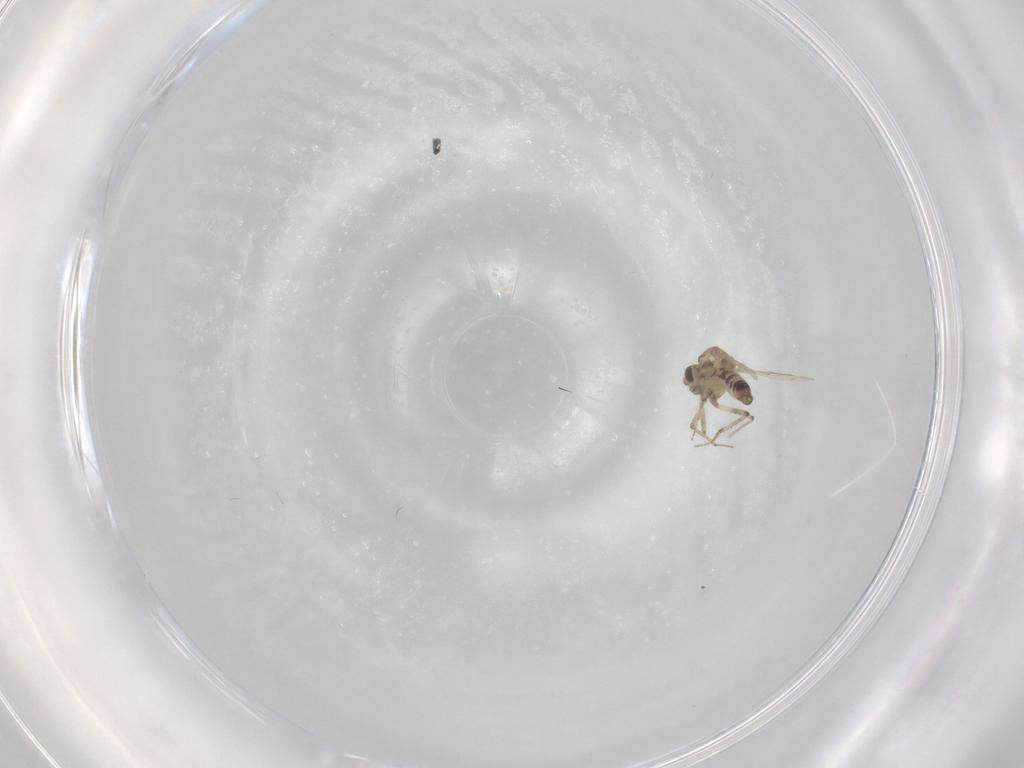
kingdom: Animalia
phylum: Arthropoda
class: Insecta
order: Diptera
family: Ceratopogonidae
